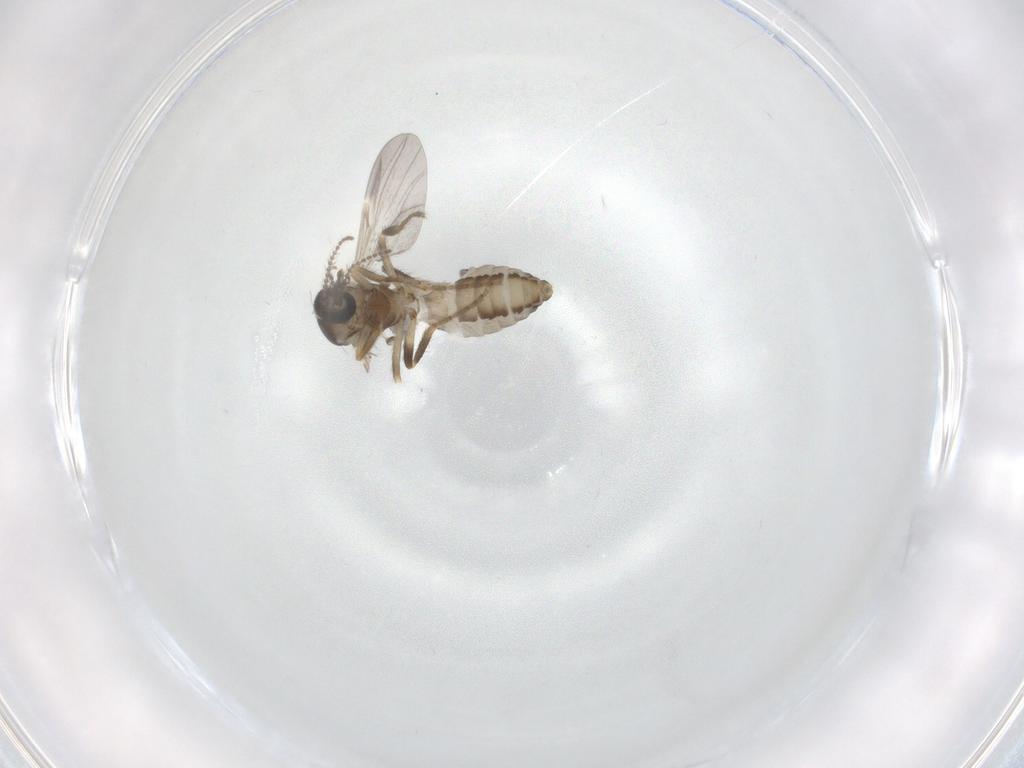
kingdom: Animalia
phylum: Arthropoda
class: Insecta
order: Diptera
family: Ceratopogonidae
